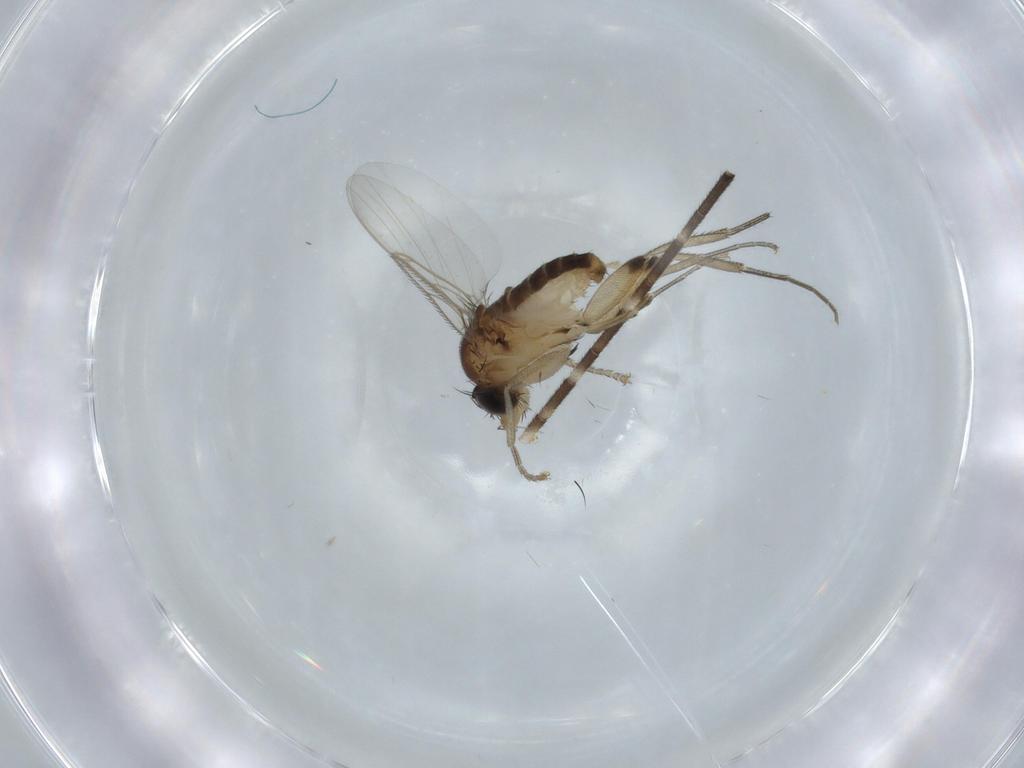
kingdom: Animalia
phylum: Arthropoda
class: Insecta
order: Diptera
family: Phoridae
